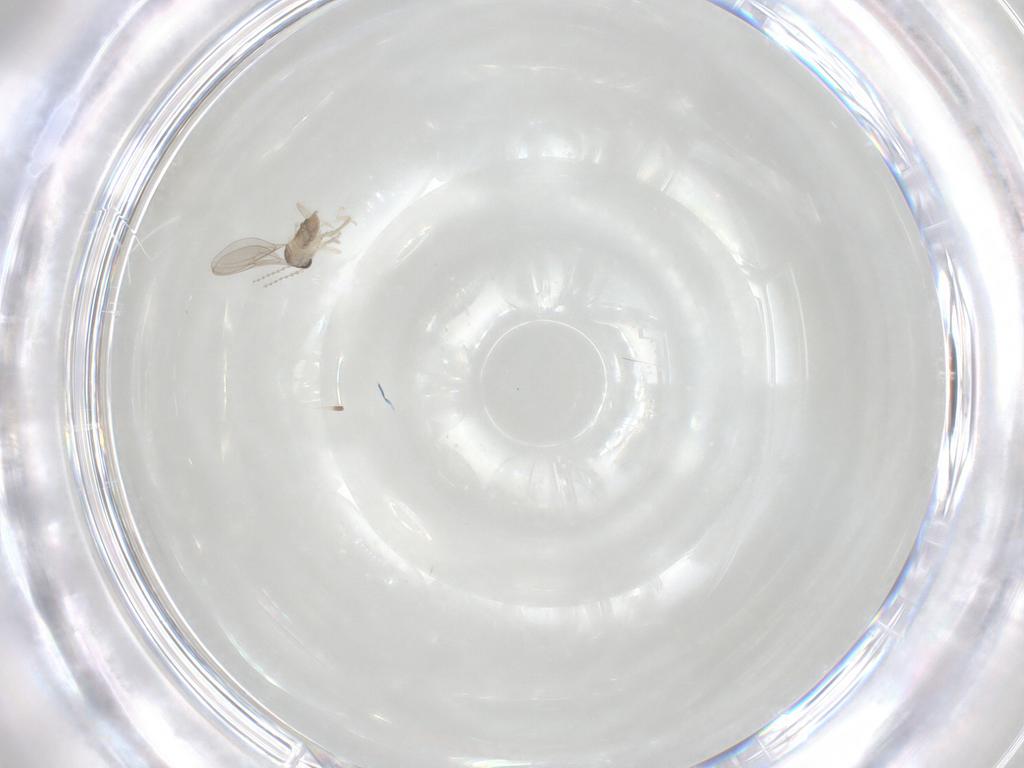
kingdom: Animalia
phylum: Arthropoda
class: Insecta
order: Diptera
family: Cecidomyiidae
